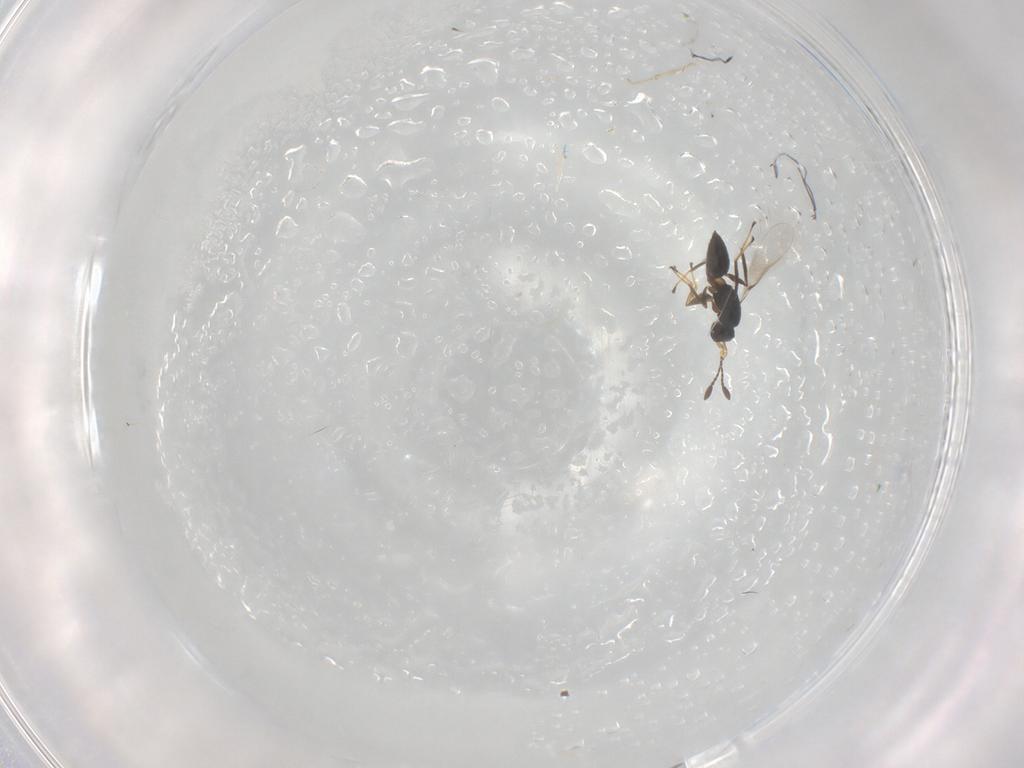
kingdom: Animalia
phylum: Arthropoda
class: Insecta
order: Hymenoptera
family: Mymaridae
